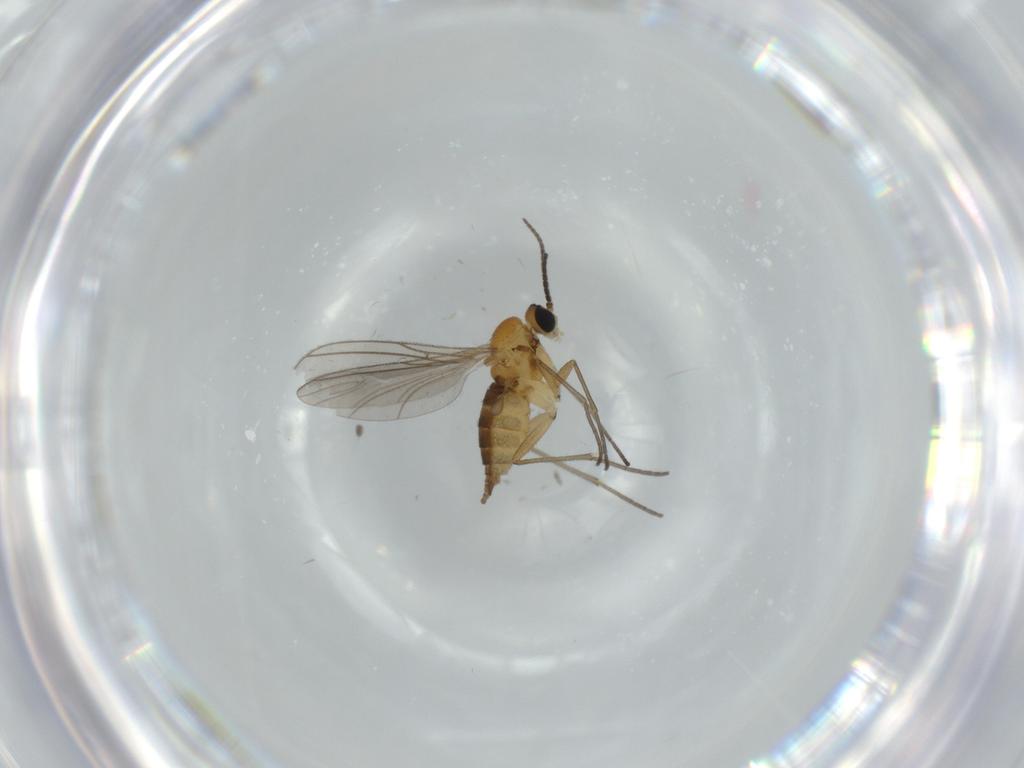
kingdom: Animalia
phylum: Arthropoda
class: Insecta
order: Diptera
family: Sciaridae
